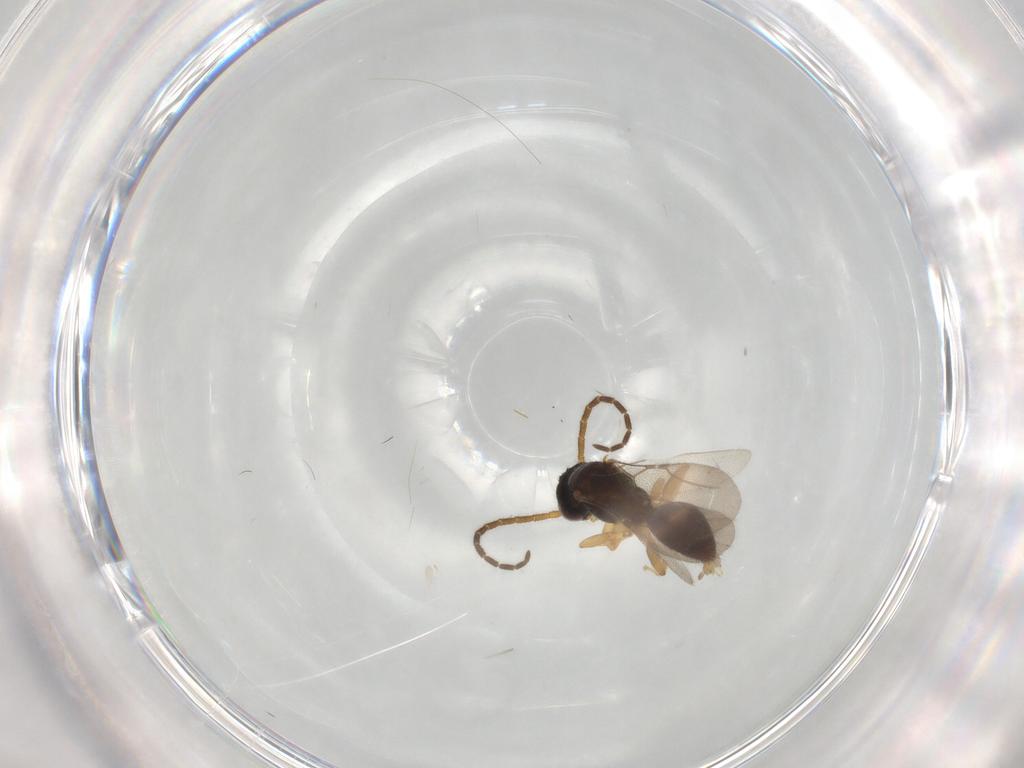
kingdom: Animalia
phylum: Arthropoda
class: Insecta
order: Hymenoptera
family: Bethylidae
